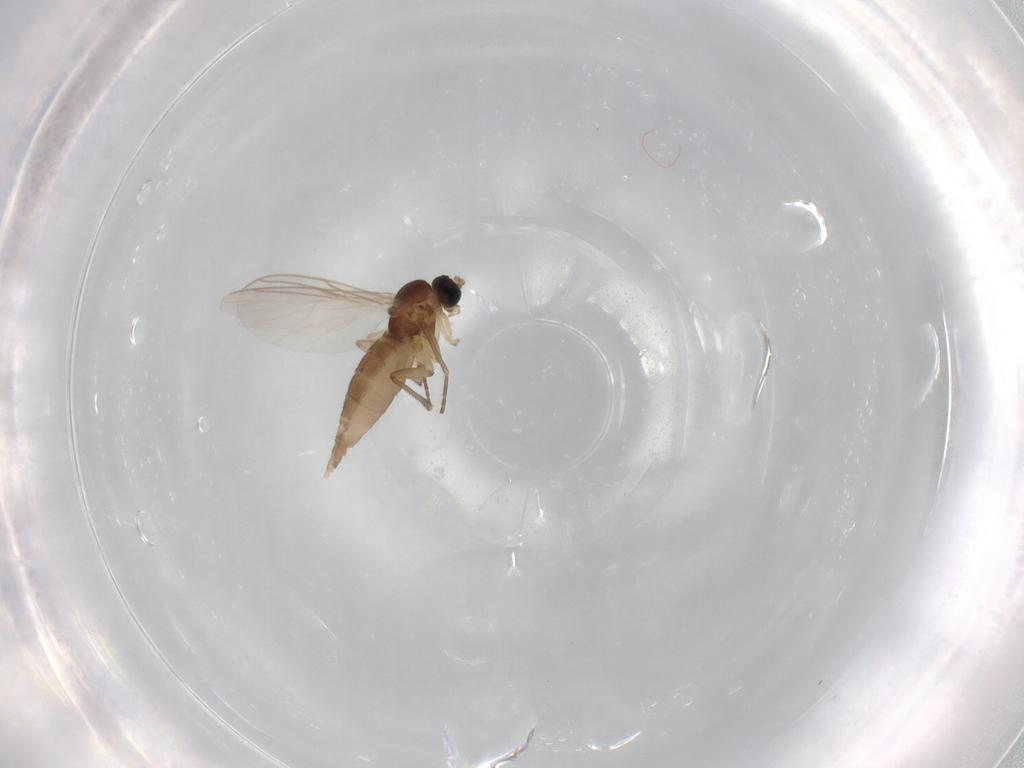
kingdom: Animalia
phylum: Arthropoda
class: Insecta
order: Diptera
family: Sciaridae
